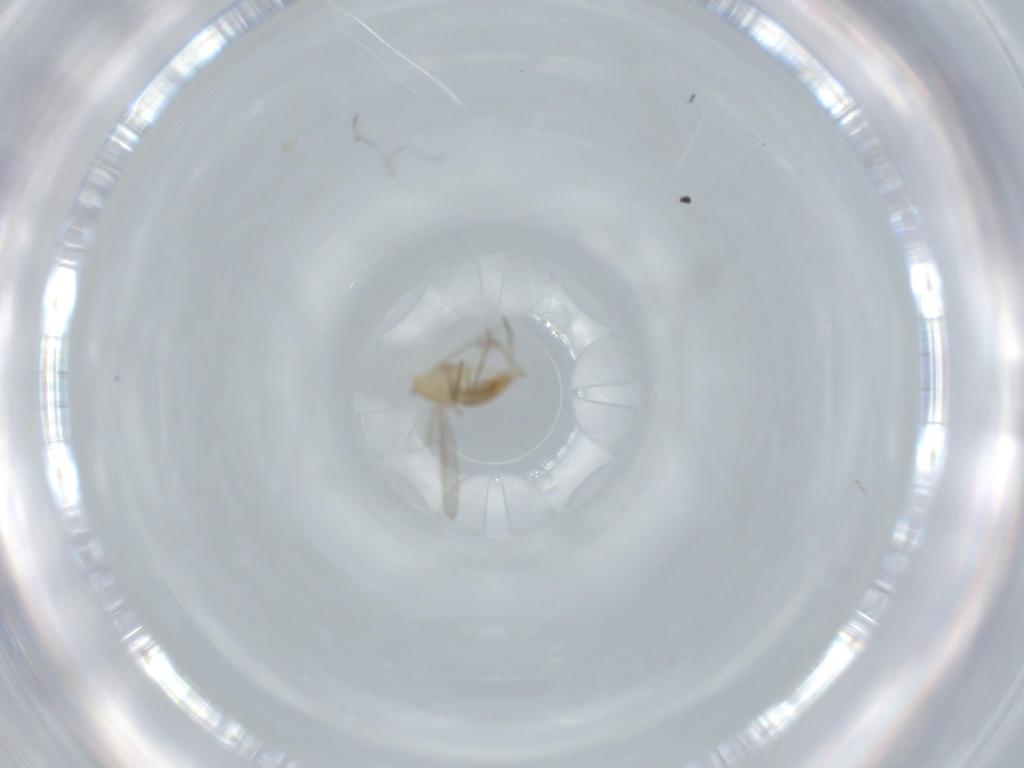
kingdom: Animalia
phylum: Arthropoda
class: Insecta
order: Diptera
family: Chironomidae
